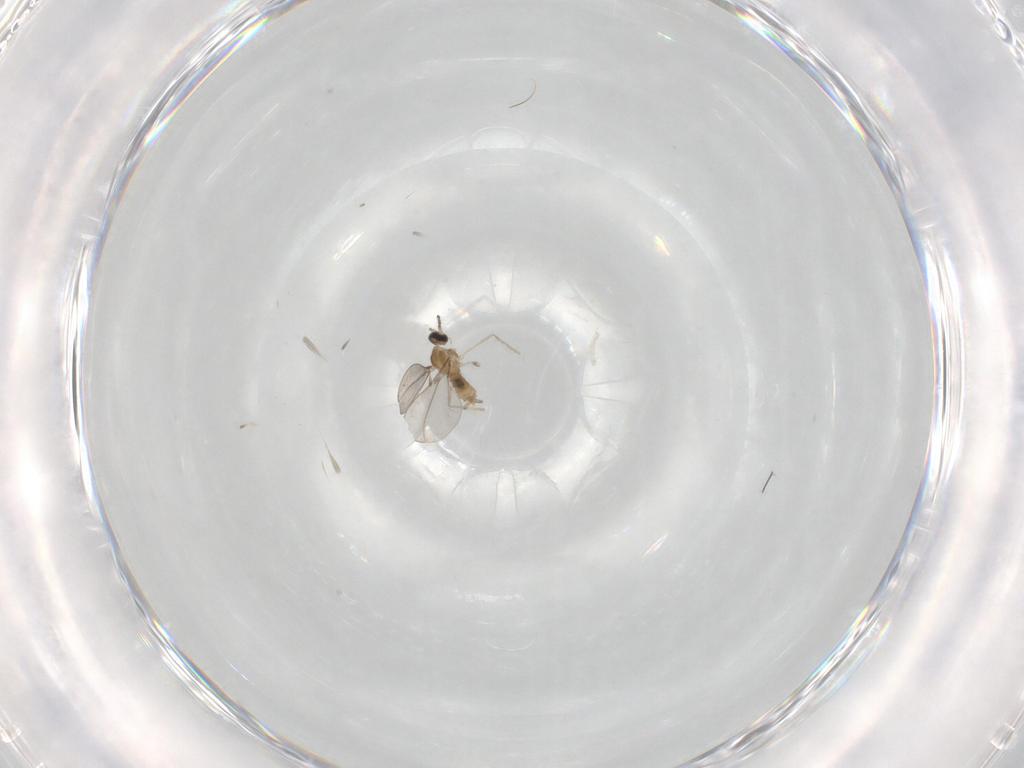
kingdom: Animalia
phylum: Arthropoda
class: Insecta
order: Diptera
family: Cecidomyiidae
